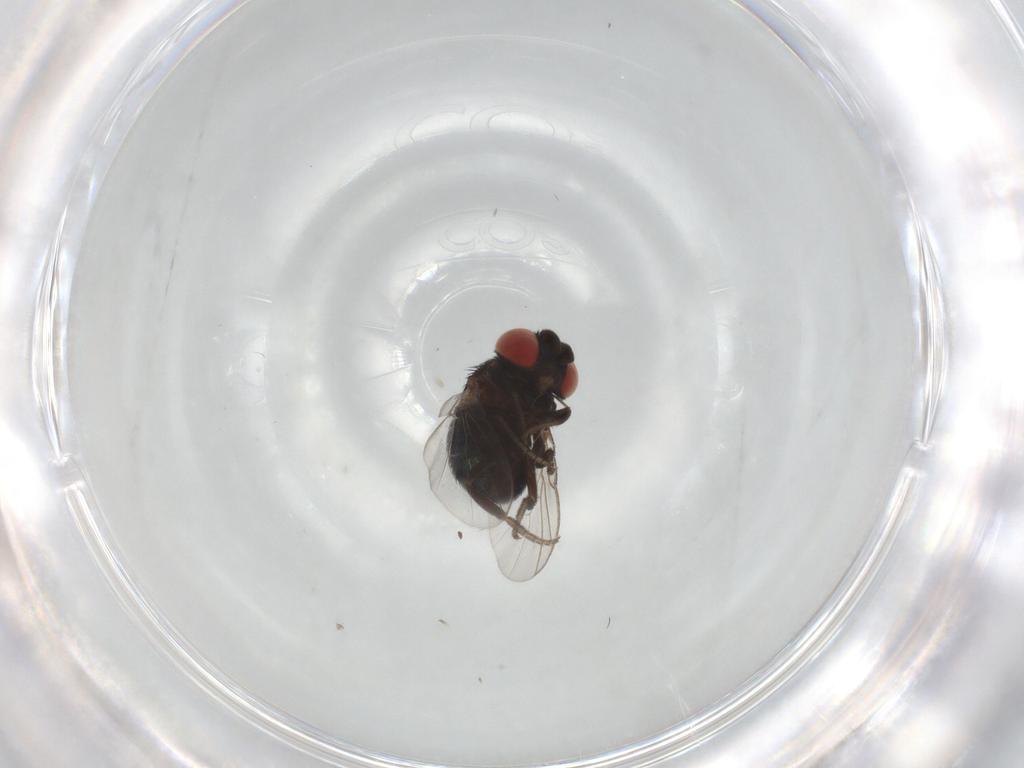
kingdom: Animalia
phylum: Arthropoda
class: Insecta
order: Diptera
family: Cryptochetidae
